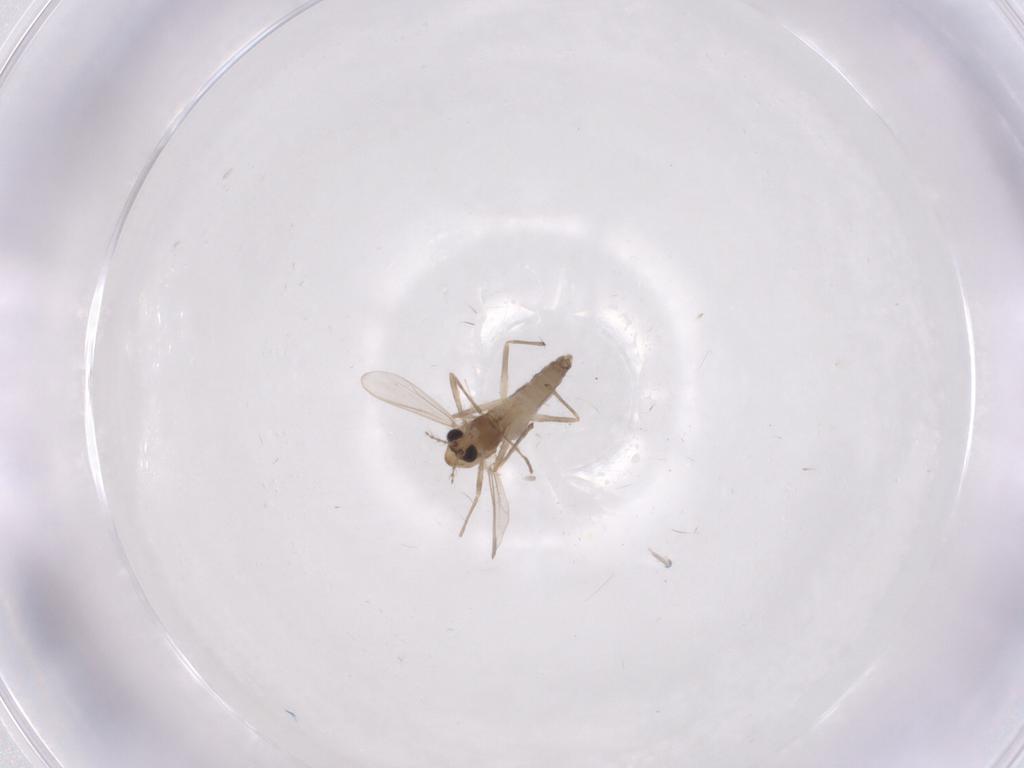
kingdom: Animalia
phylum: Arthropoda
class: Insecta
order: Diptera
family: Chironomidae
